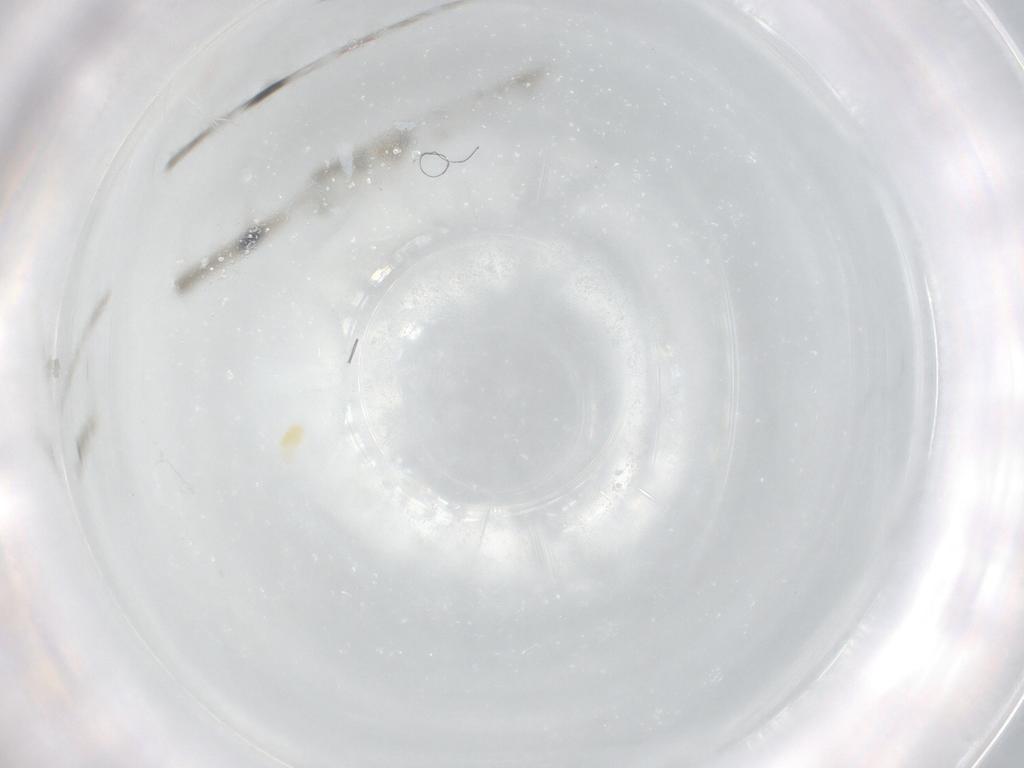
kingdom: Animalia
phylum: Arthropoda
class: Arachnida
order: Trombidiformes
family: Rhagidiidae
